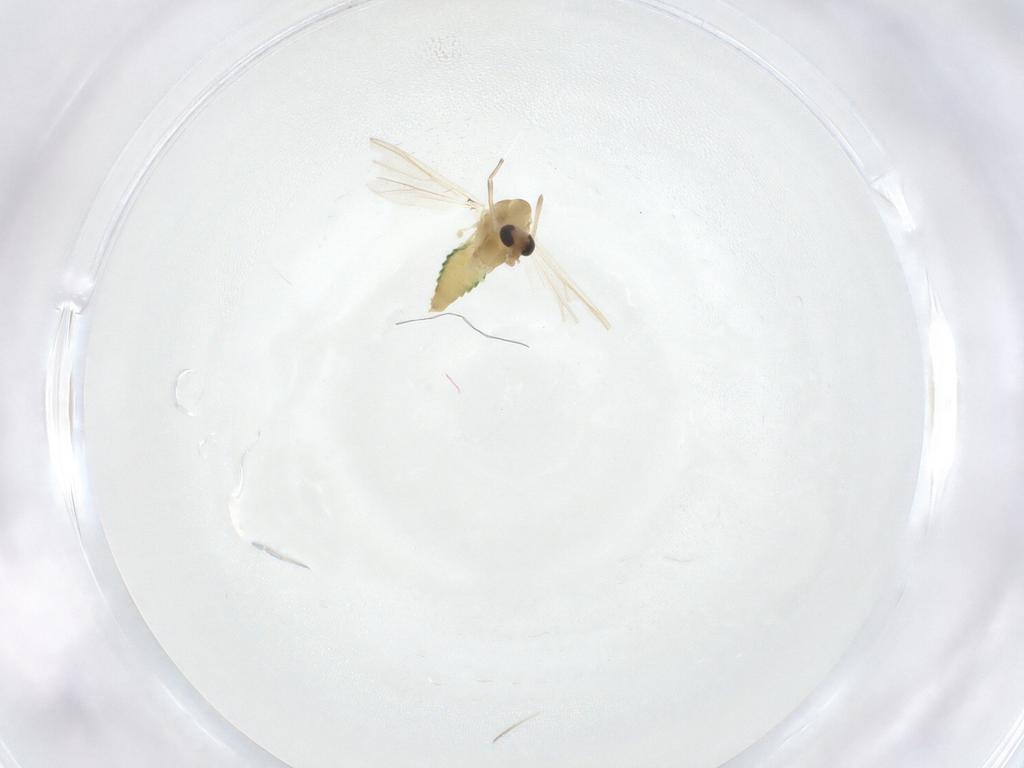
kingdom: Animalia
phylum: Arthropoda
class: Insecta
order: Diptera
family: Chironomidae
